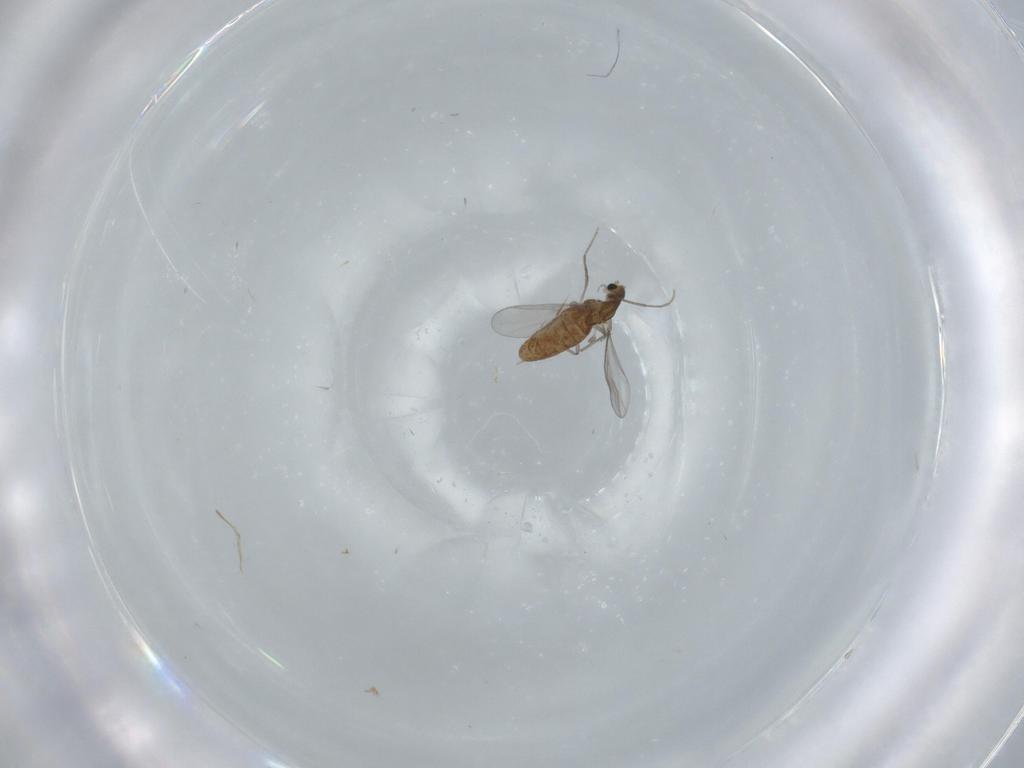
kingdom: Animalia
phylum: Arthropoda
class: Insecta
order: Diptera
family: Chironomidae
